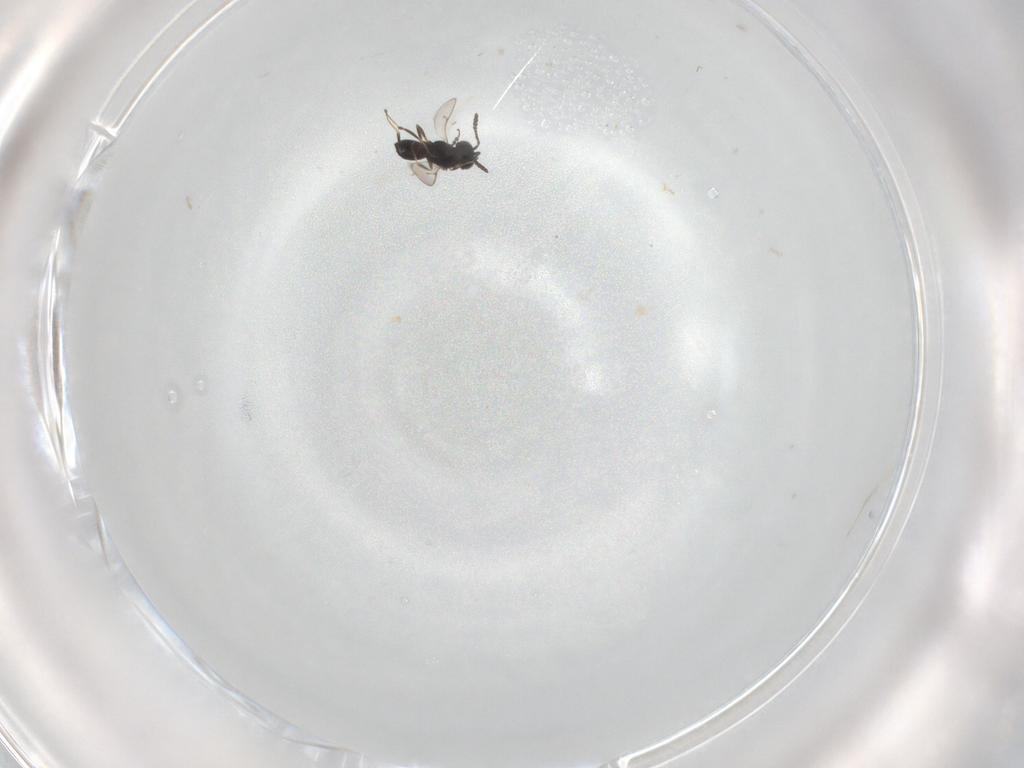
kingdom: Animalia
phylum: Arthropoda
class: Insecta
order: Hymenoptera
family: Scelionidae
